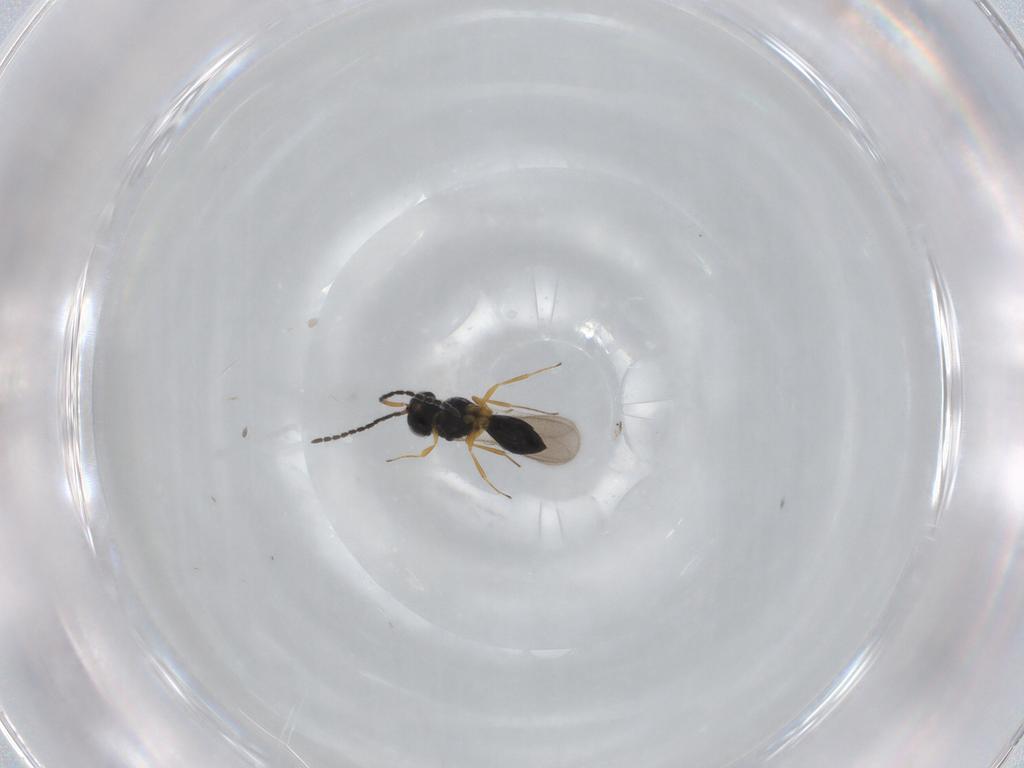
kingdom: Animalia
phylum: Arthropoda
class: Insecta
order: Hymenoptera
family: Scelionidae
